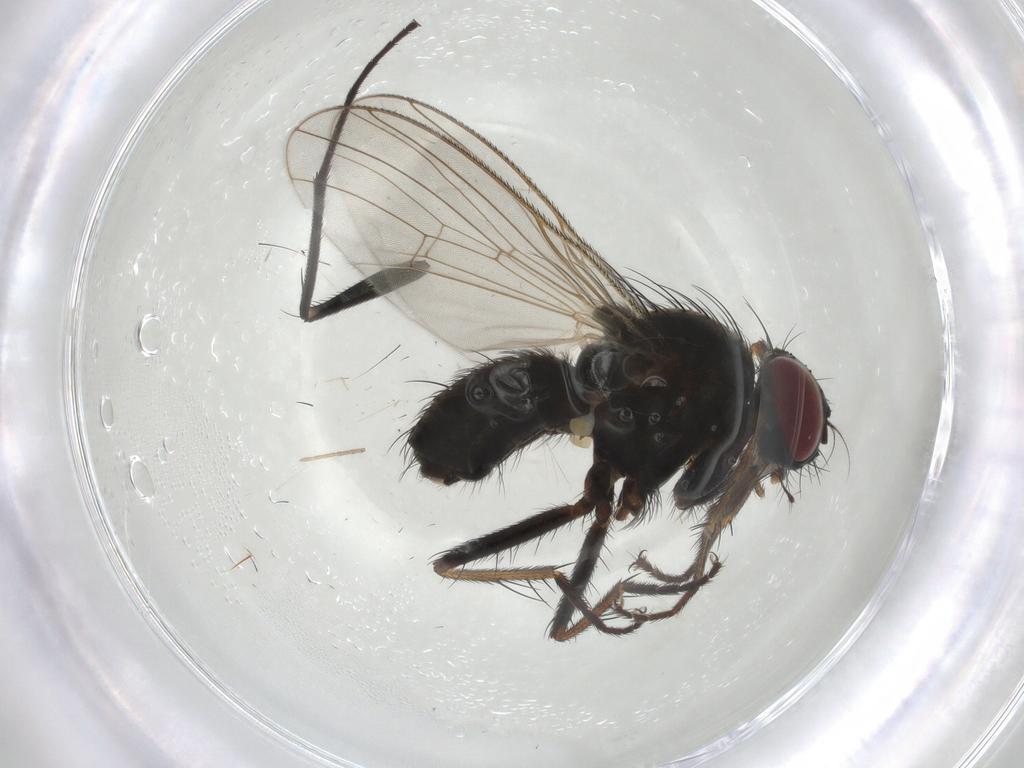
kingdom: Animalia
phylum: Arthropoda
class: Insecta
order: Diptera
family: Muscidae
